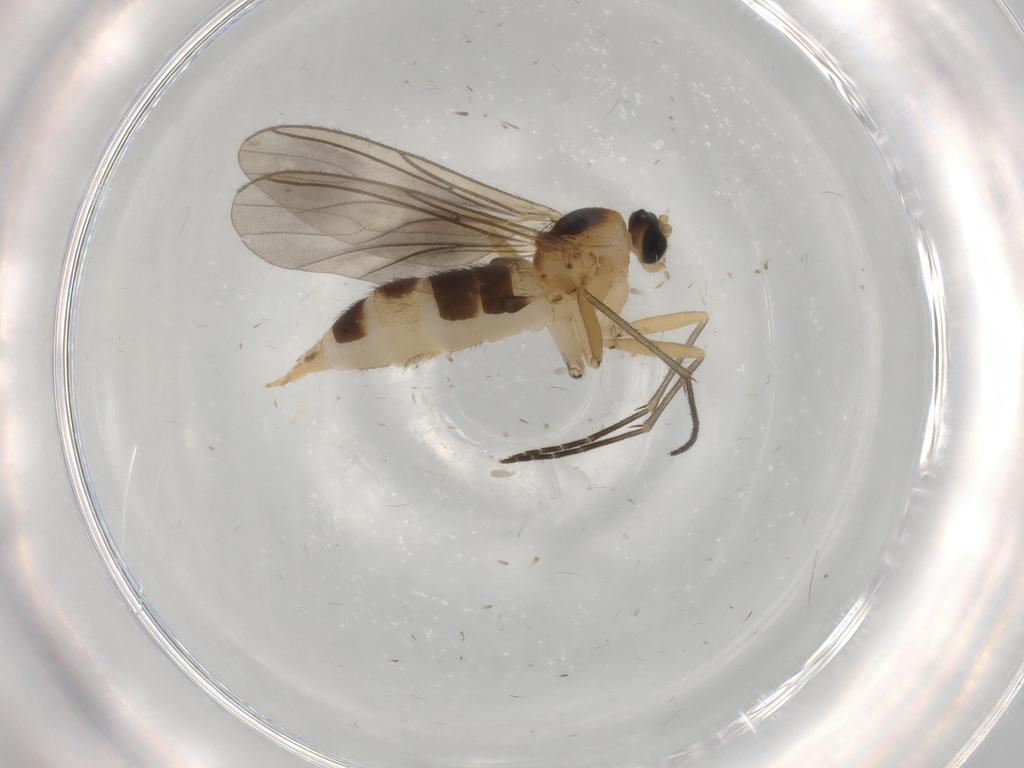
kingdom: Animalia
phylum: Arthropoda
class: Insecta
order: Diptera
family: Sciaridae
